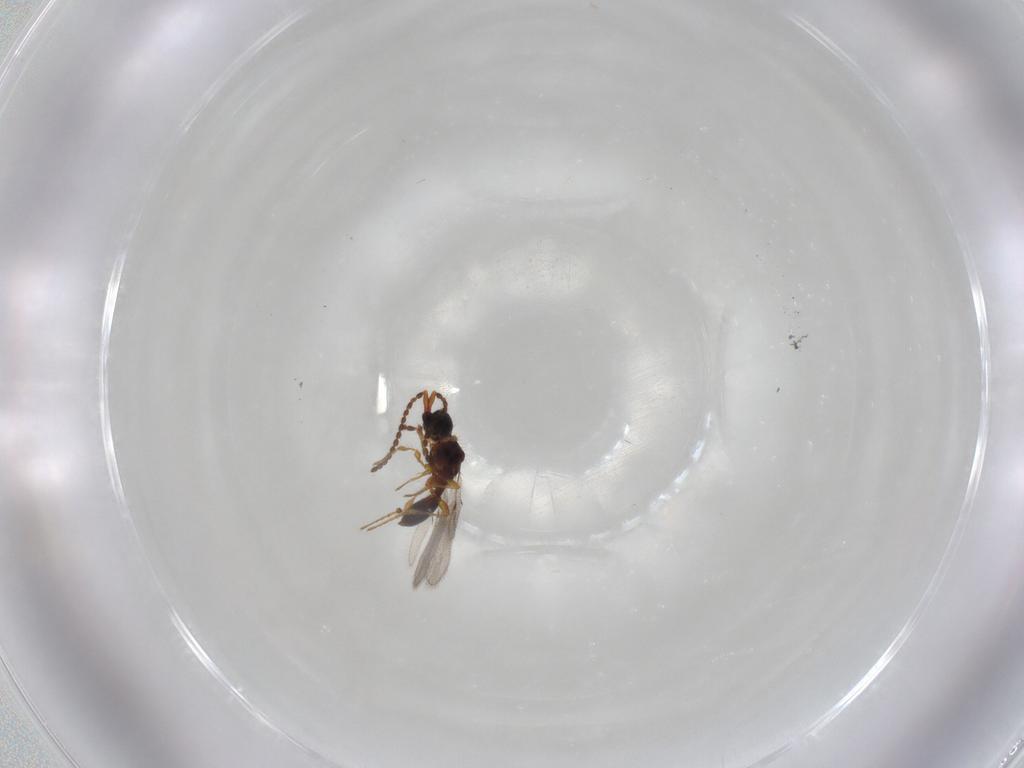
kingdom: Animalia
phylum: Arthropoda
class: Insecta
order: Hymenoptera
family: Diapriidae
